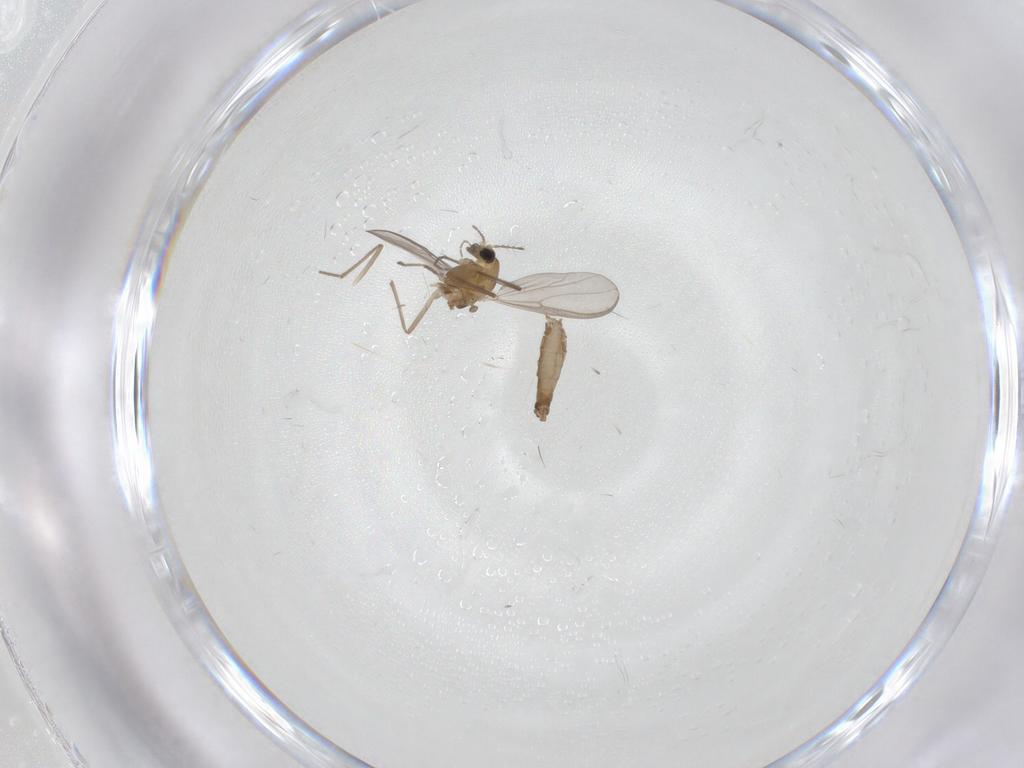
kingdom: Animalia
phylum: Arthropoda
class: Insecta
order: Diptera
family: Chironomidae
